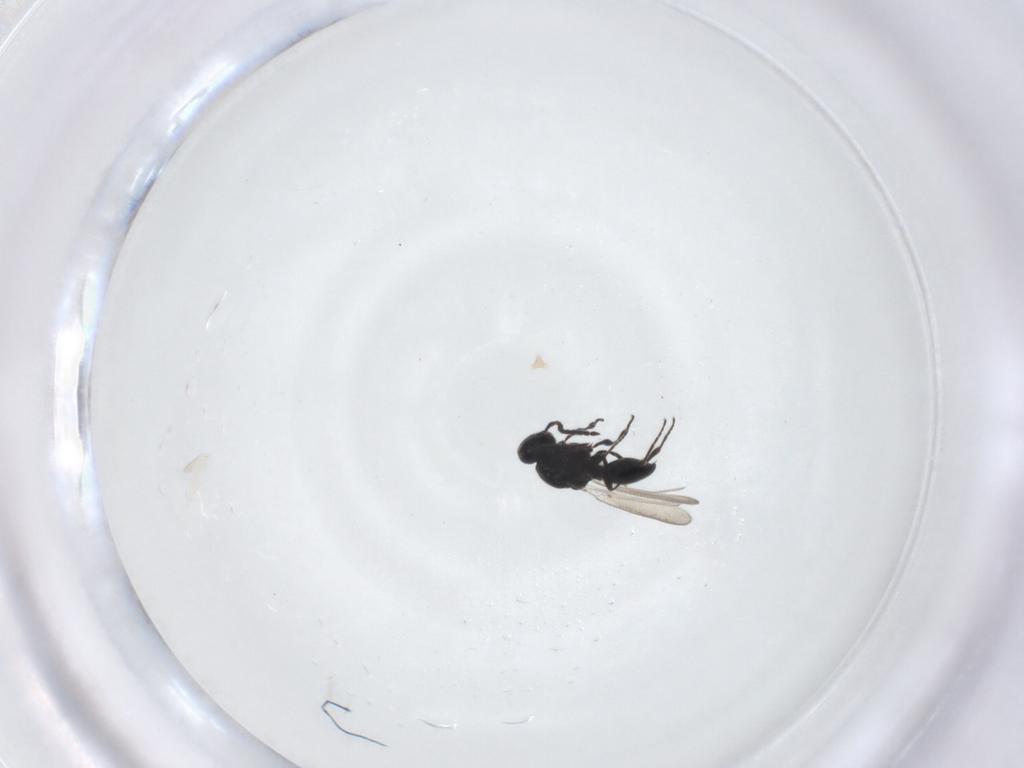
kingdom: Animalia
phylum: Arthropoda
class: Insecta
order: Hymenoptera
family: Platygastridae
